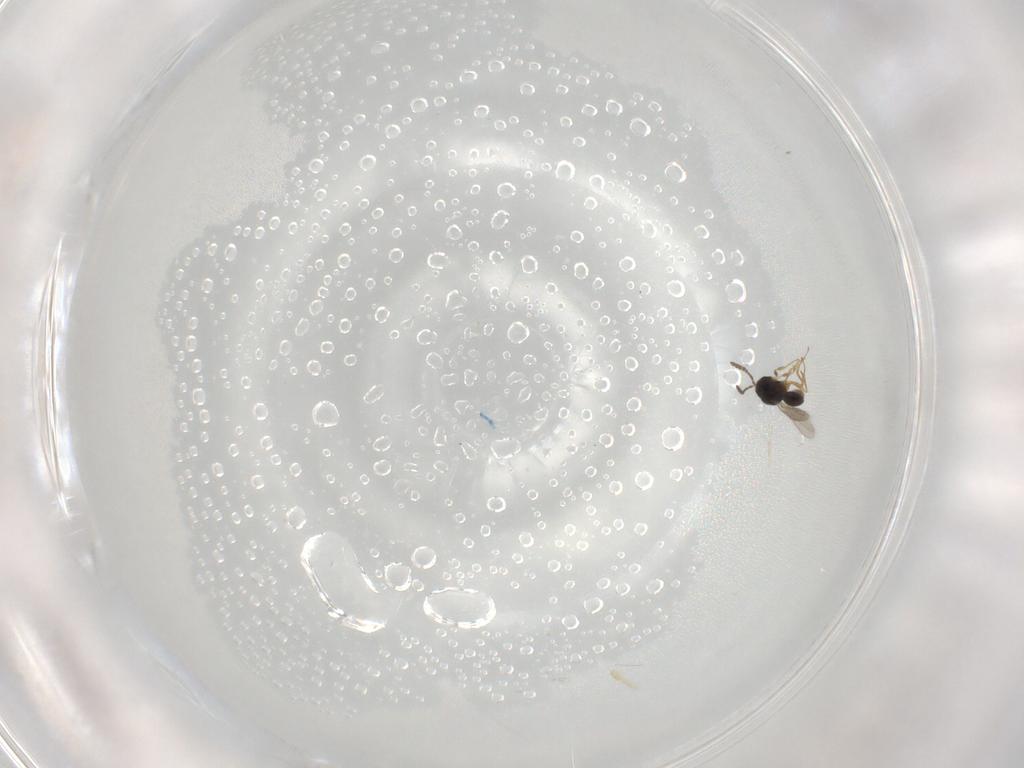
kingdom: Animalia
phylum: Arthropoda
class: Insecta
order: Hymenoptera
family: Scelionidae
